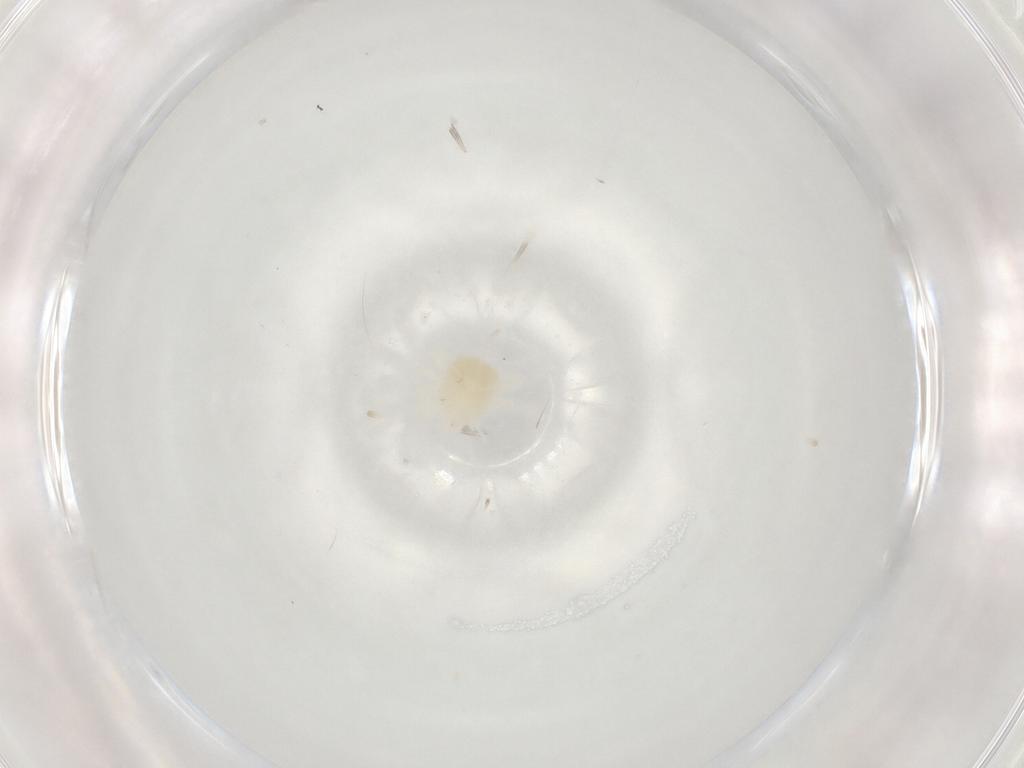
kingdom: Animalia
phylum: Arthropoda
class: Arachnida
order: Trombidiformes
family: Anystidae
